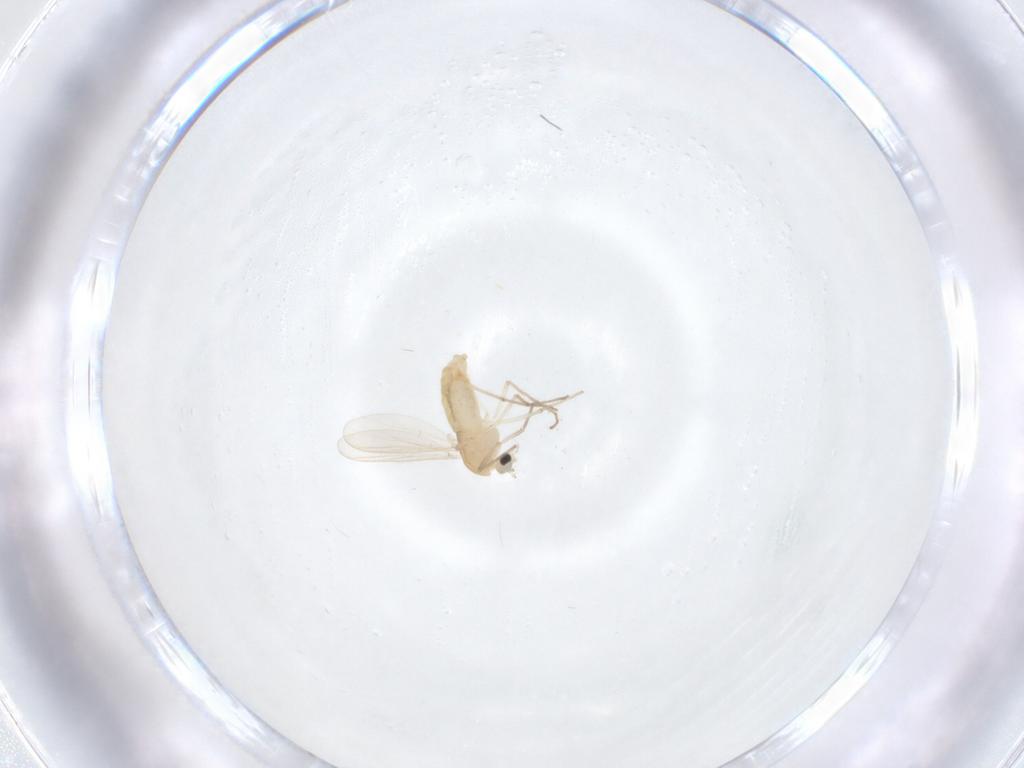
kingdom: Animalia
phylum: Arthropoda
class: Insecta
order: Diptera
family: Chironomidae
